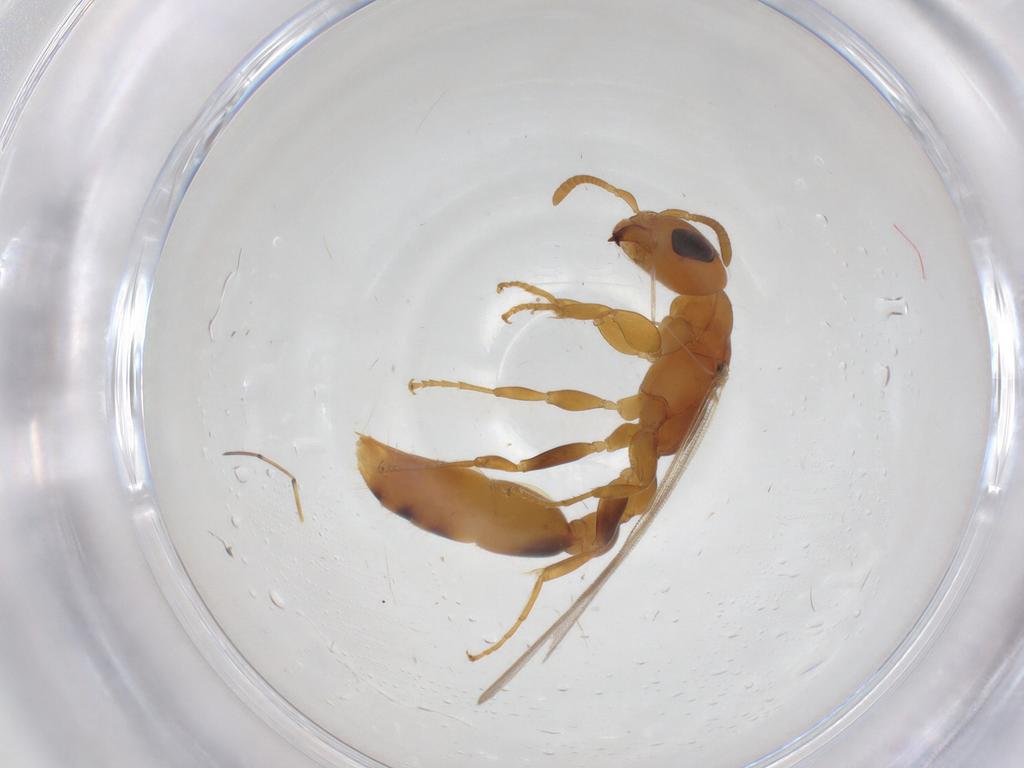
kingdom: Animalia
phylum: Arthropoda
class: Insecta
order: Hymenoptera
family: Formicidae
